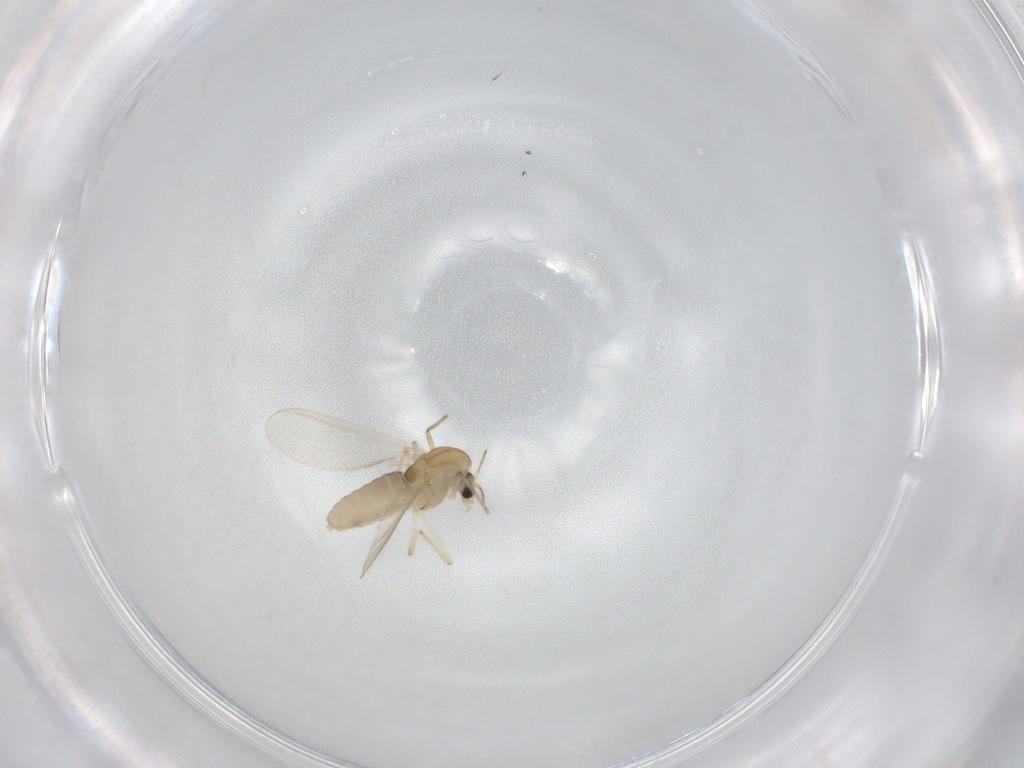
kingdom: Animalia
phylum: Arthropoda
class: Insecta
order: Diptera
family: Chironomidae
